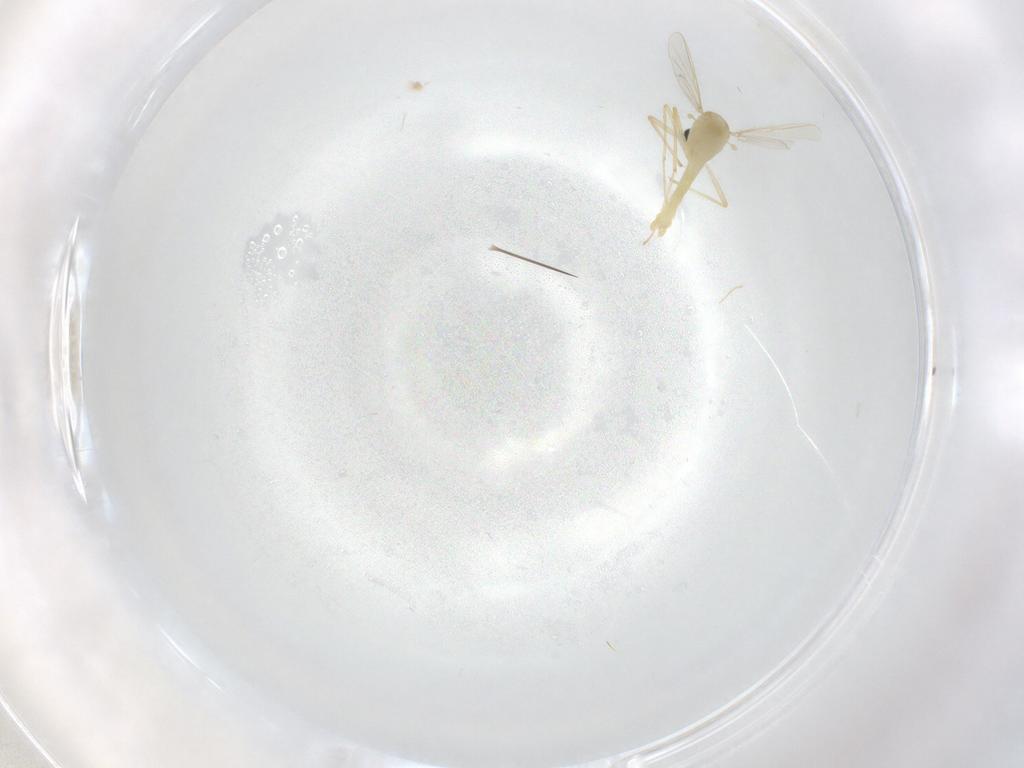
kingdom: Animalia
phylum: Arthropoda
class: Insecta
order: Diptera
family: Chironomidae
